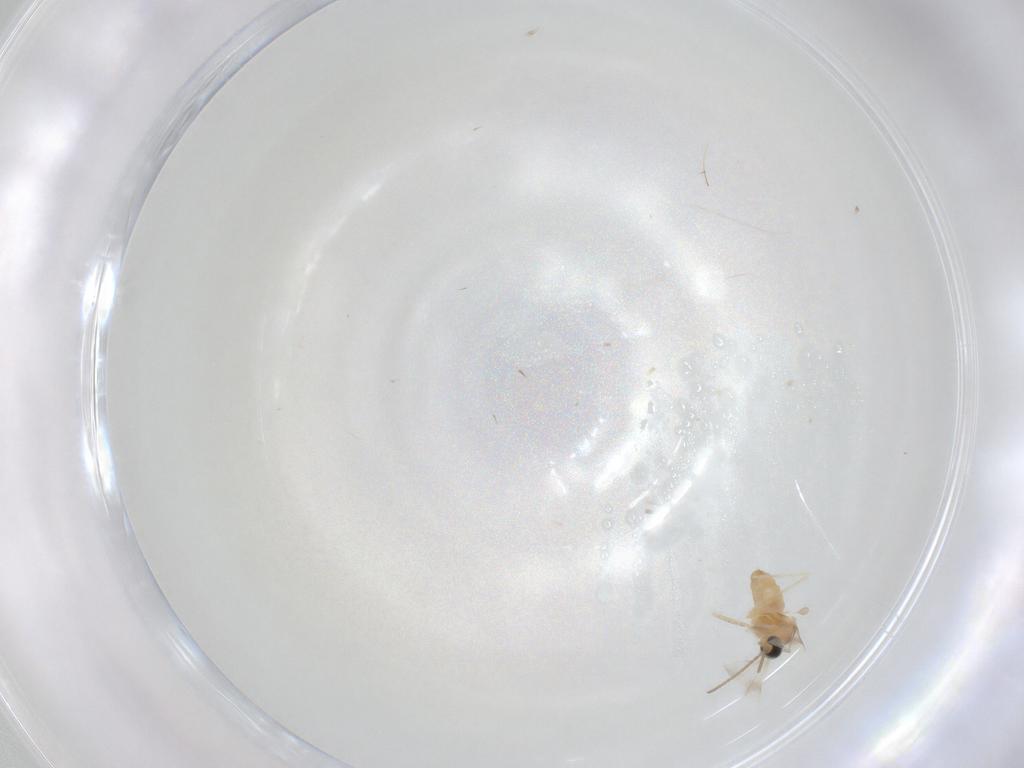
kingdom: Animalia
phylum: Arthropoda
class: Insecta
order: Diptera
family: Cecidomyiidae
